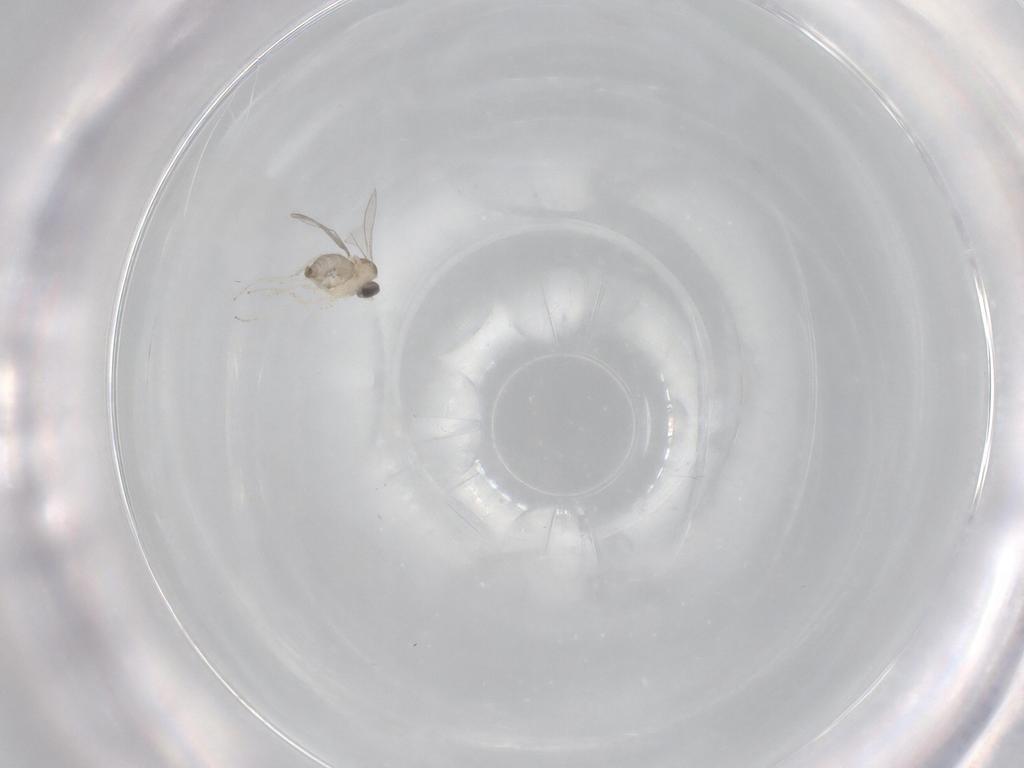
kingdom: Animalia
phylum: Arthropoda
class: Insecta
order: Diptera
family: Cecidomyiidae
